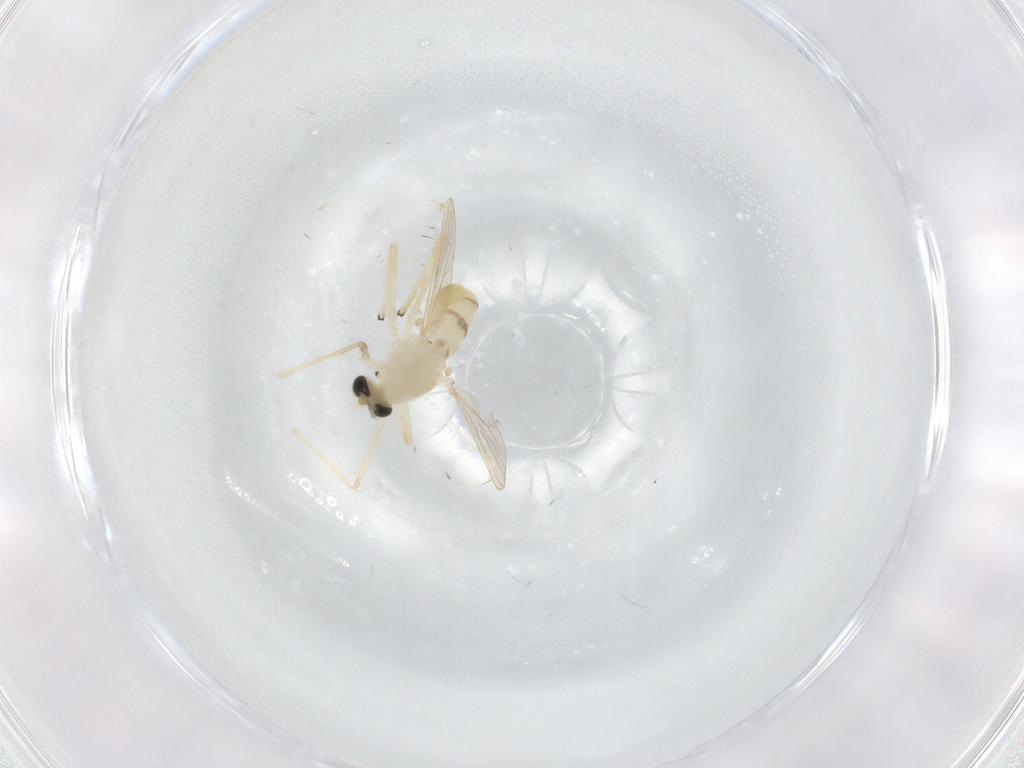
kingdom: Animalia
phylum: Arthropoda
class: Insecta
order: Diptera
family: Chironomidae
